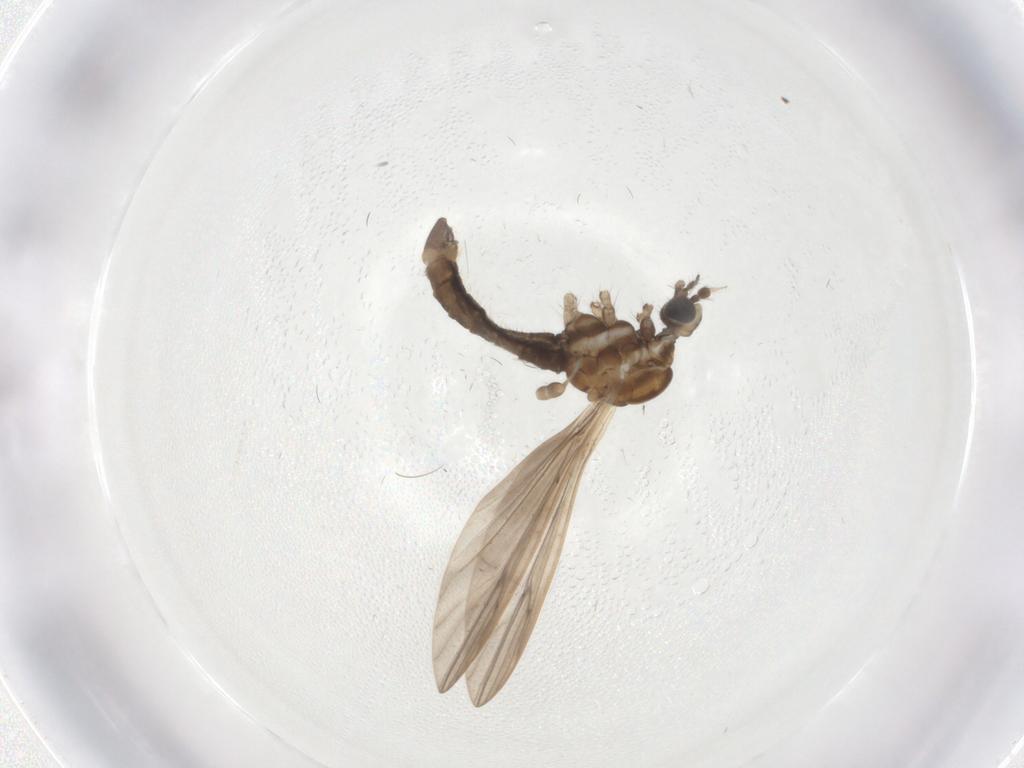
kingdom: Animalia
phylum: Arthropoda
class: Insecta
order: Diptera
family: Limoniidae
